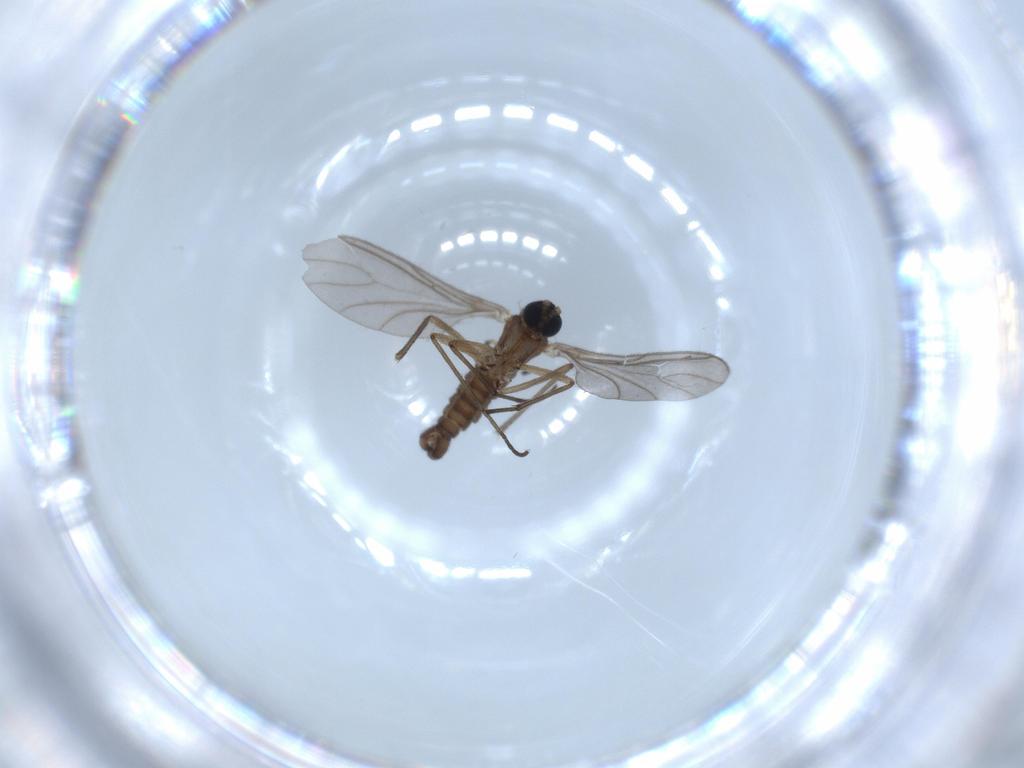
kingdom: Animalia
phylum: Arthropoda
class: Insecta
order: Diptera
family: Sciaridae
